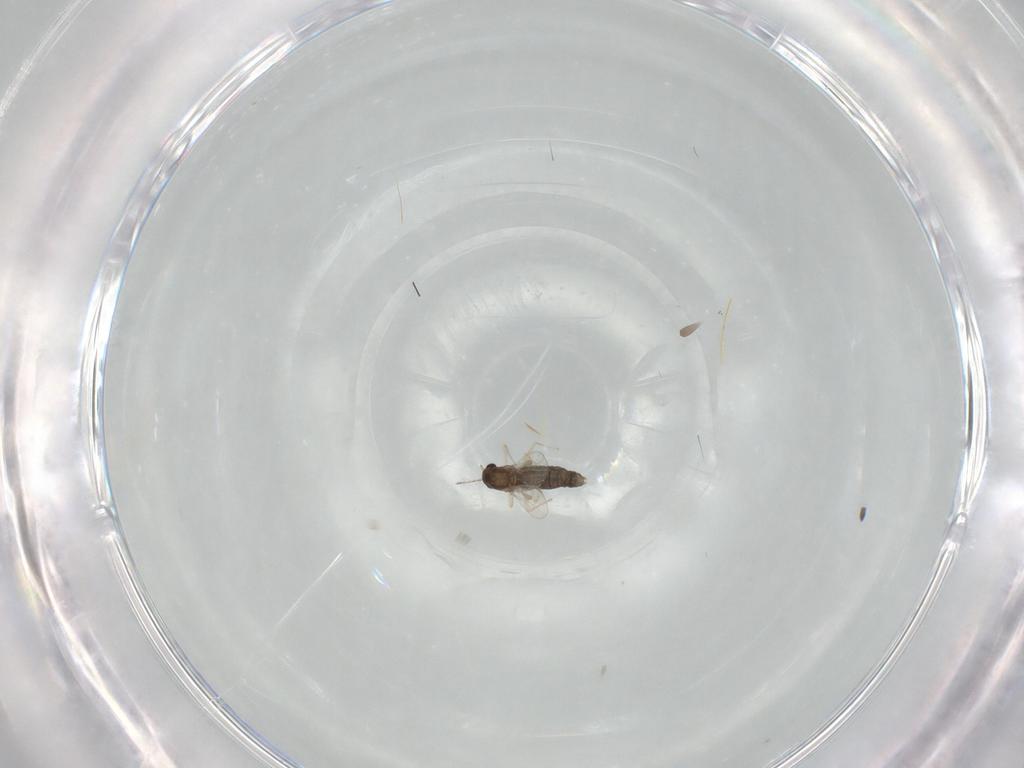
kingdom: Animalia
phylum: Arthropoda
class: Insecta
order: Diptera
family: Chironomidae
